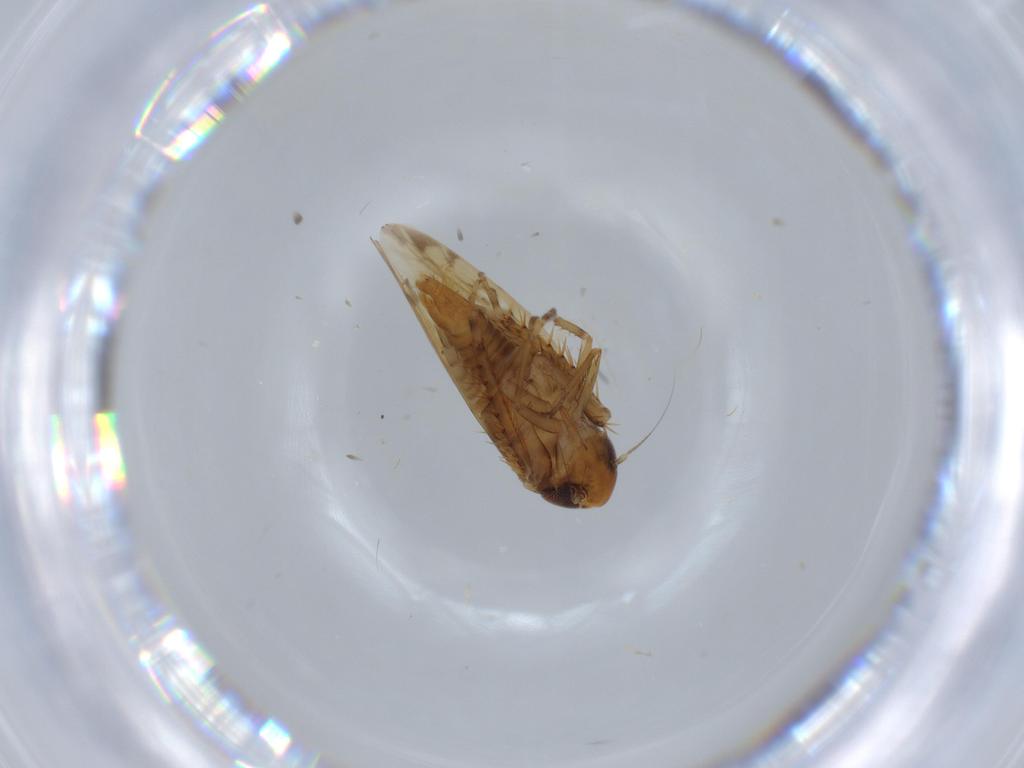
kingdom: Animalia
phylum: Arthropoda
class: Insecta
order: Hemiptera
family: Cicadellidae
